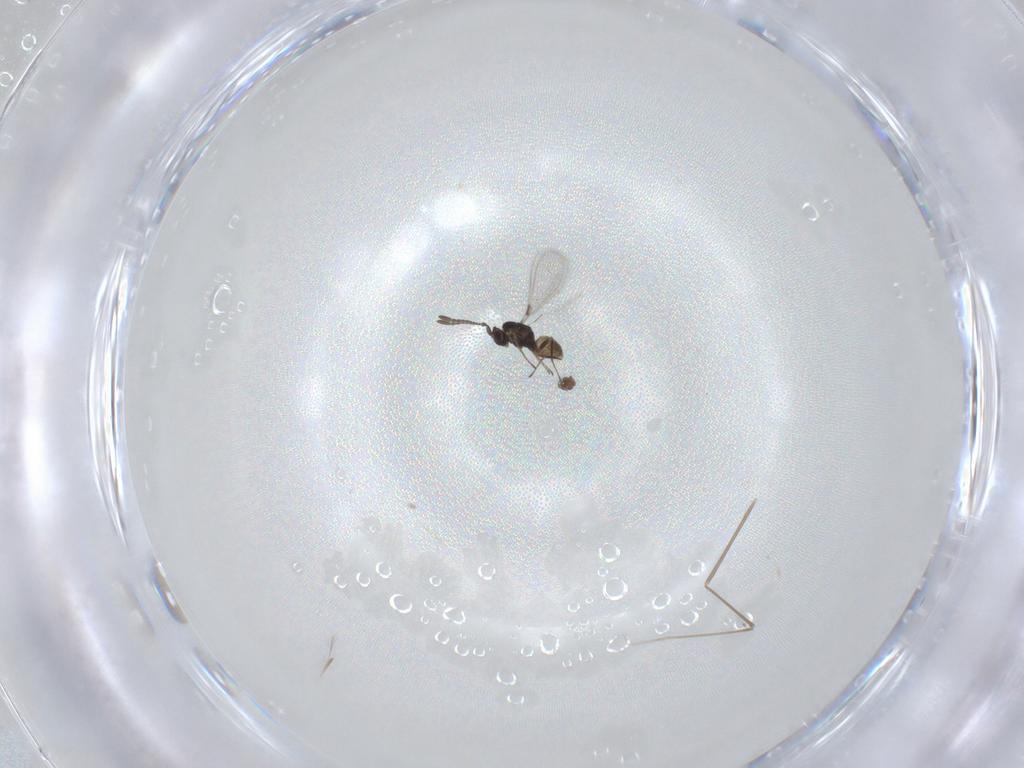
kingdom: Animalia
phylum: Arthropoda
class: Insecta
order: Hymenoptera
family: Mymaridae
